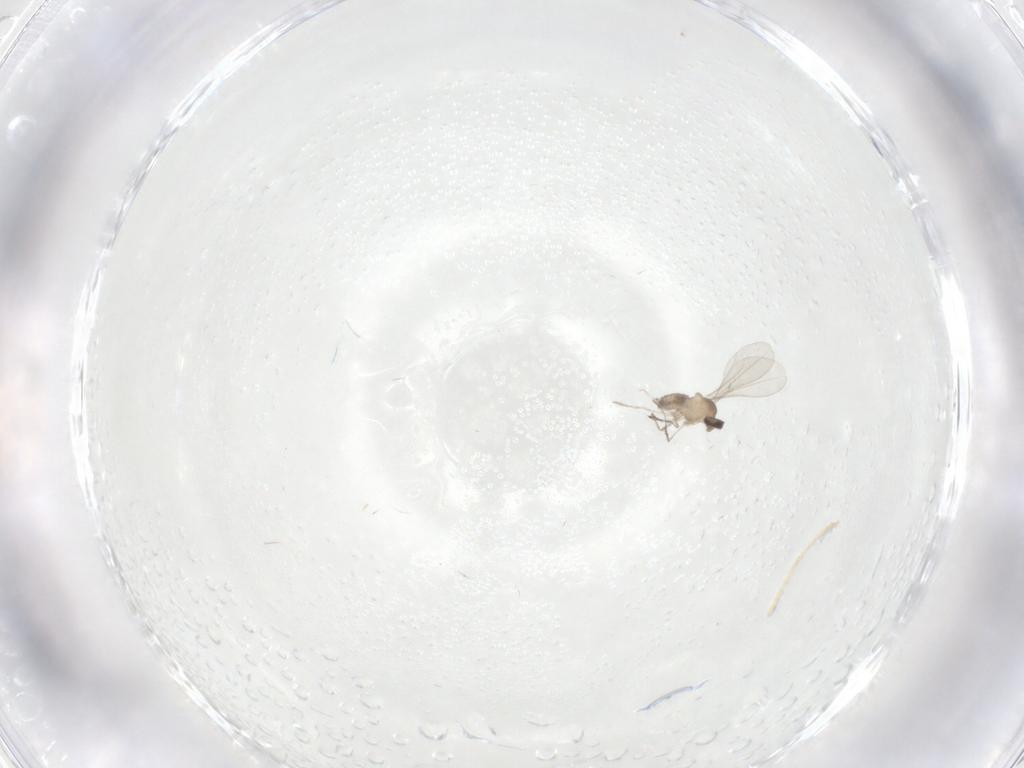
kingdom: Animalia
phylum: Arthropoda
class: Insecta
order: Diptera
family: Cecidomyiidae
